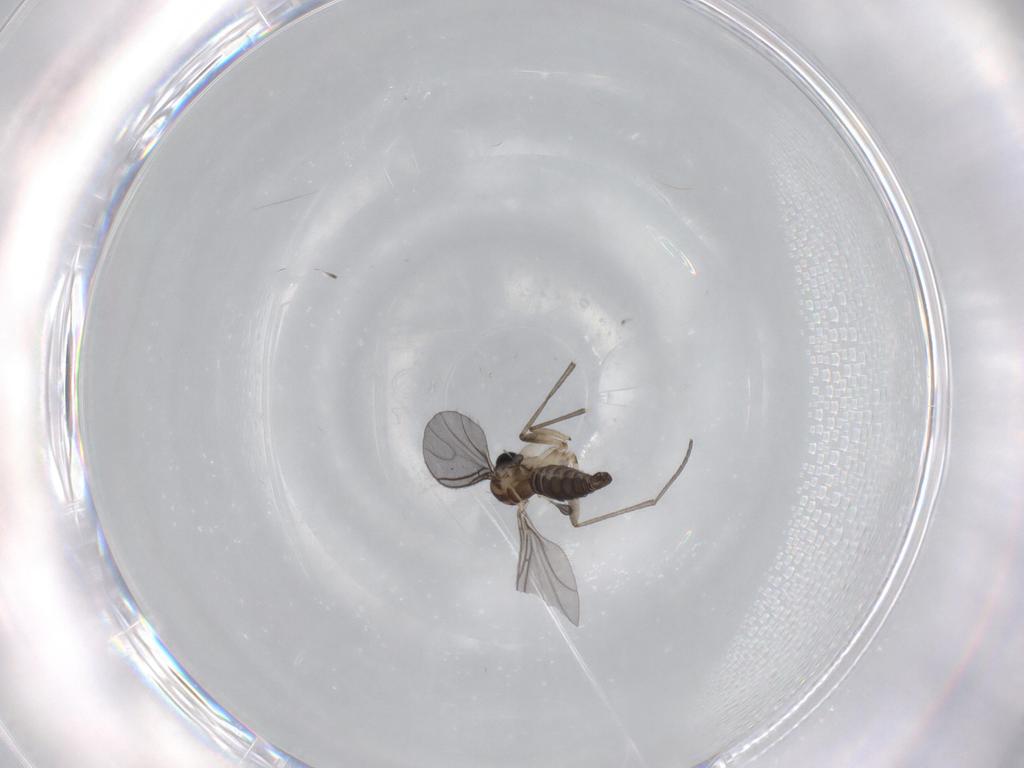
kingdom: Animalia
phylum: Arthropoda
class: Insecta
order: Diptera
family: Sciaridae
